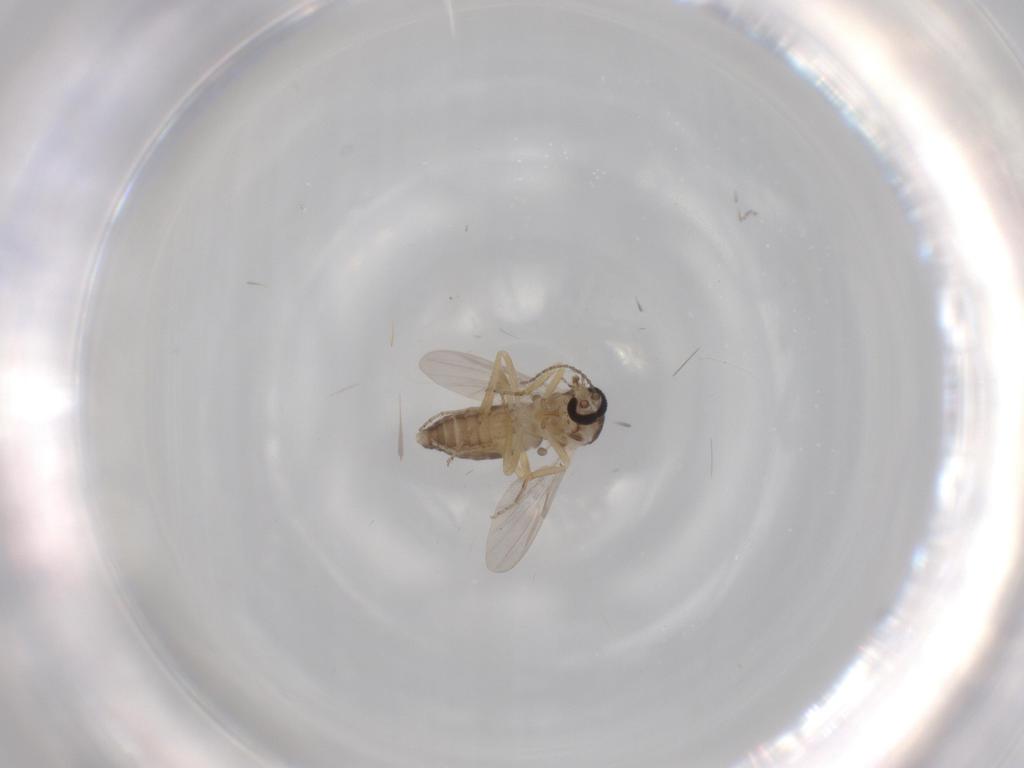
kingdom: Animalia
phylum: Arthropoda
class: Insecta
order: Diptera
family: Ceratopogonidae
